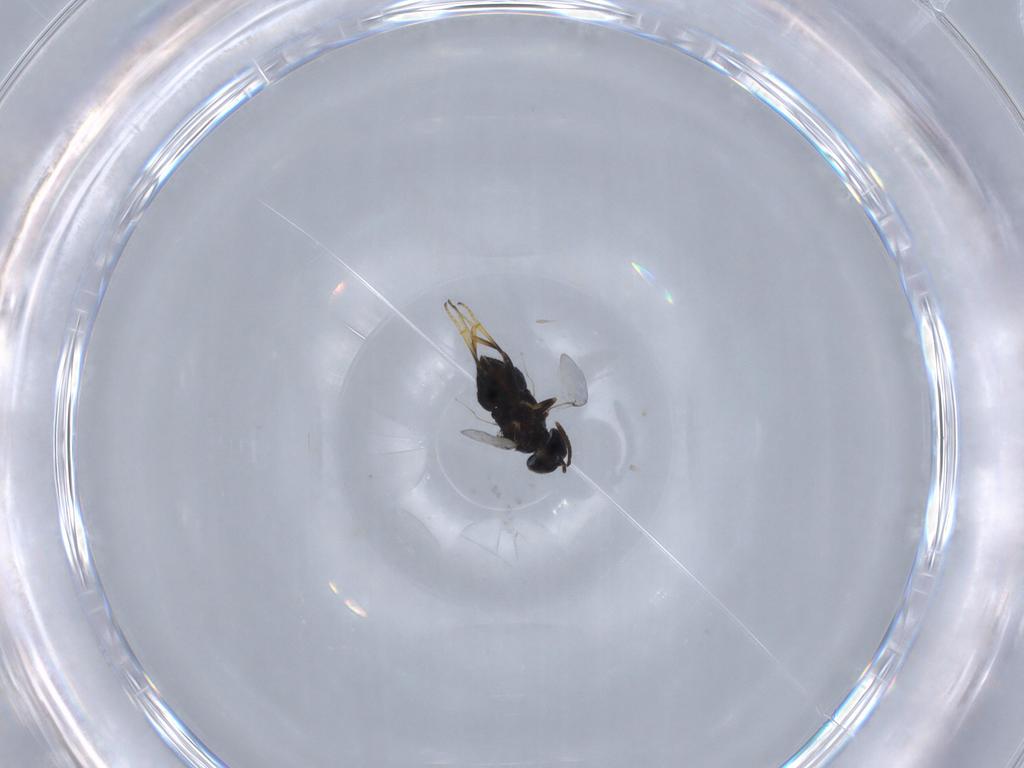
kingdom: Animalia
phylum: Arthropoda
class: Insecta
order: Hymenoptera
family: Encyrtidae
